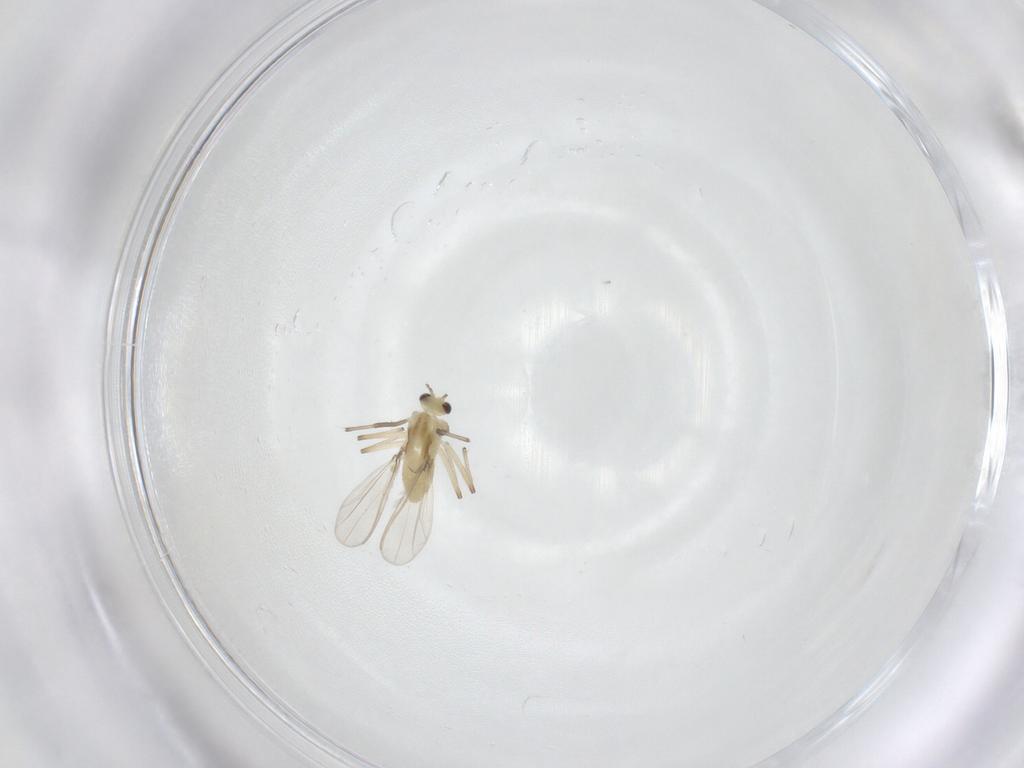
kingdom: Animalia
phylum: Arthropoda
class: Insecta
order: Diptera
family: Chironomidae
